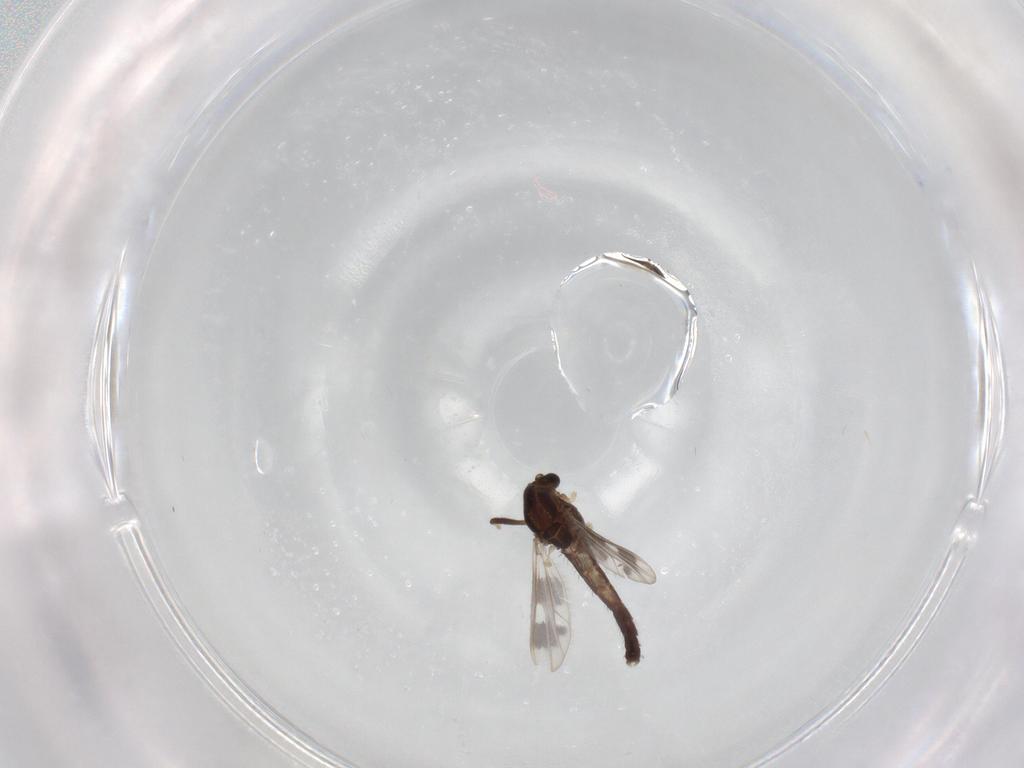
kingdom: Animalia
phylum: Arthropoda
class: Insecta
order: Diptera
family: Chironomidae
